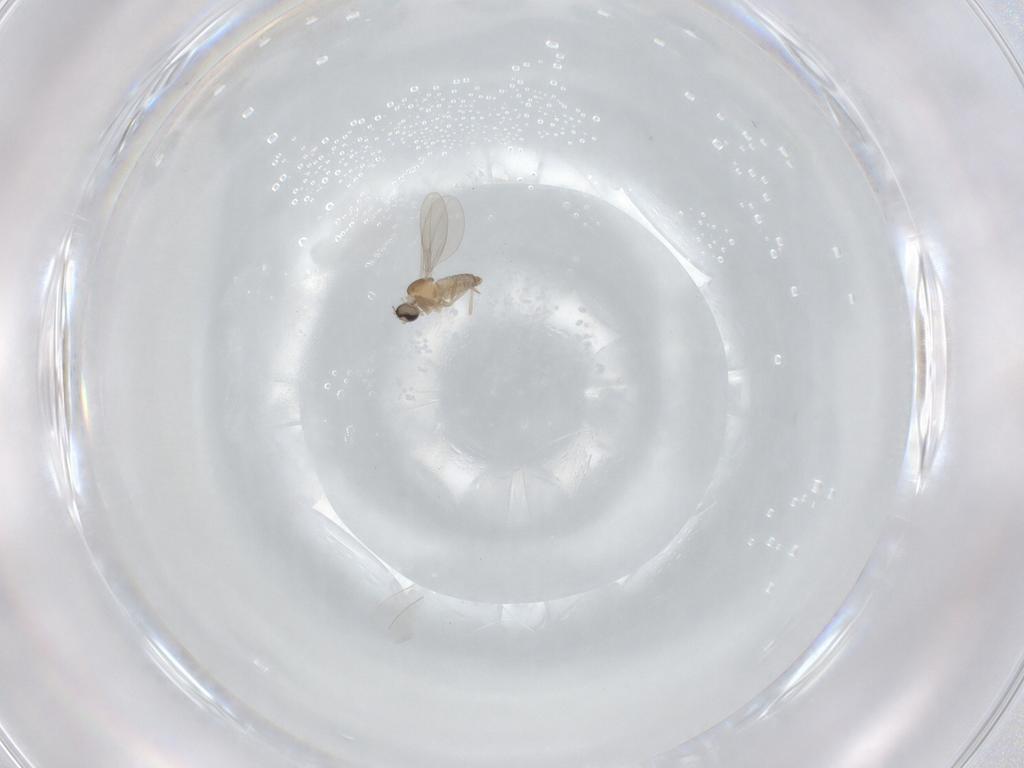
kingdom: Animalia
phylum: Arthropoda
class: Insecta
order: Diptera
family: Cecidomyiidae
